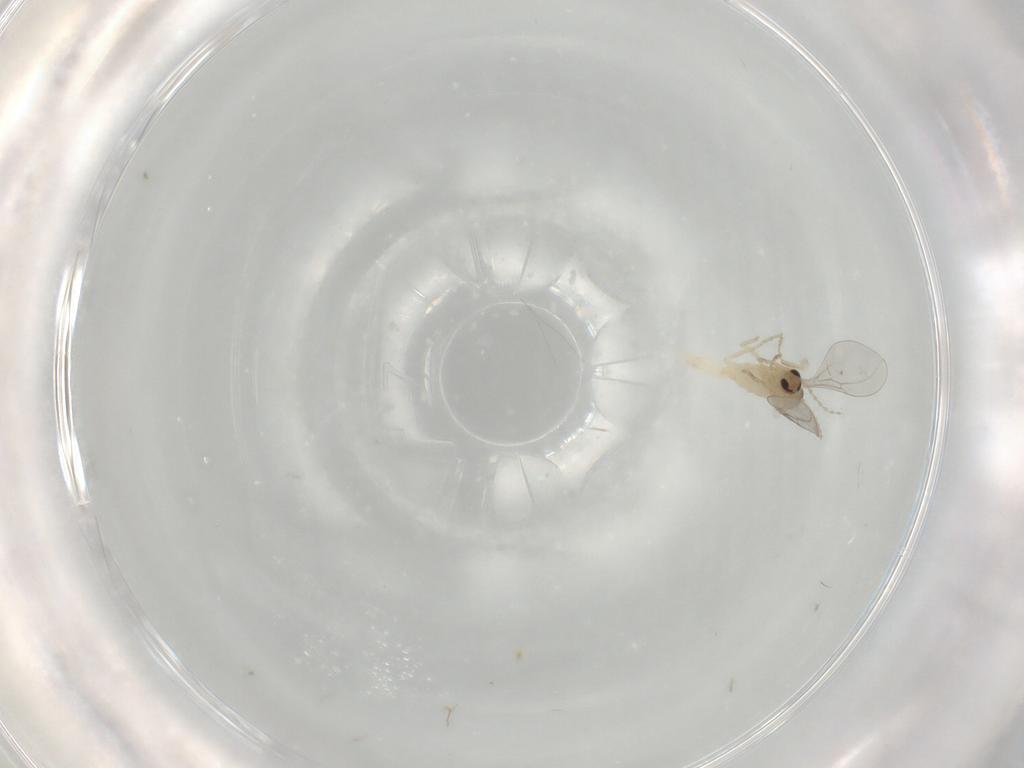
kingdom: Animalia
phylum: Arthropoda
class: Insecta
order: Diptera
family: Cecidomyiidae
